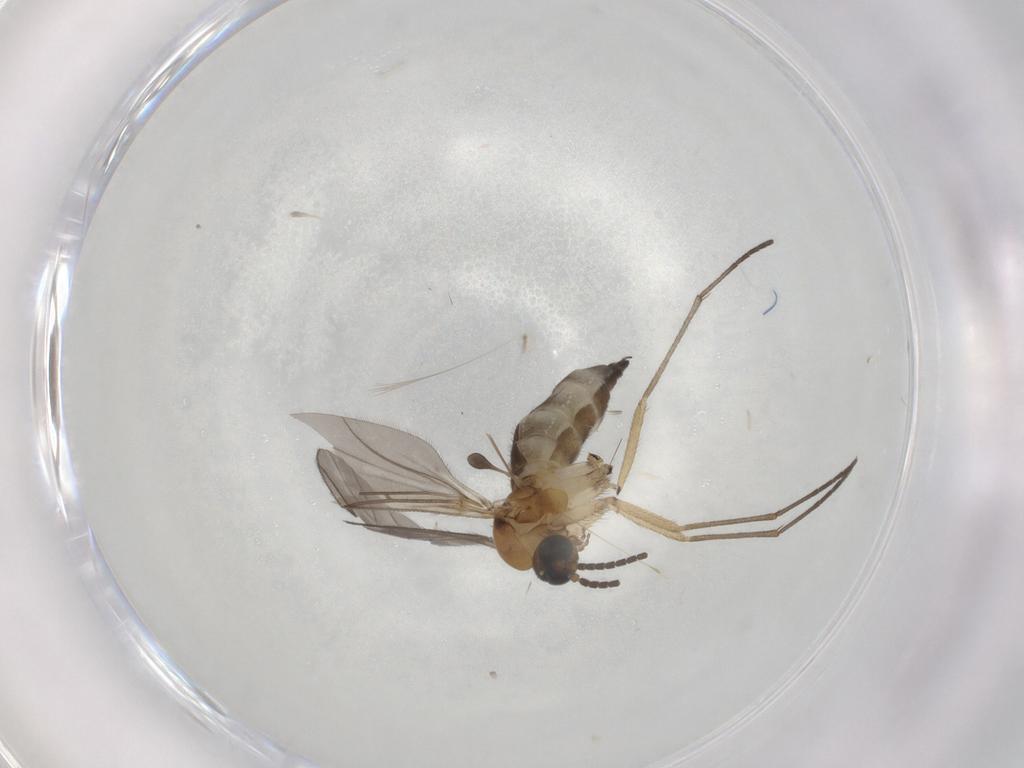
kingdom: Animalia
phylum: Arthropoda
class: Insecta
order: Diptera
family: Sciaridae
